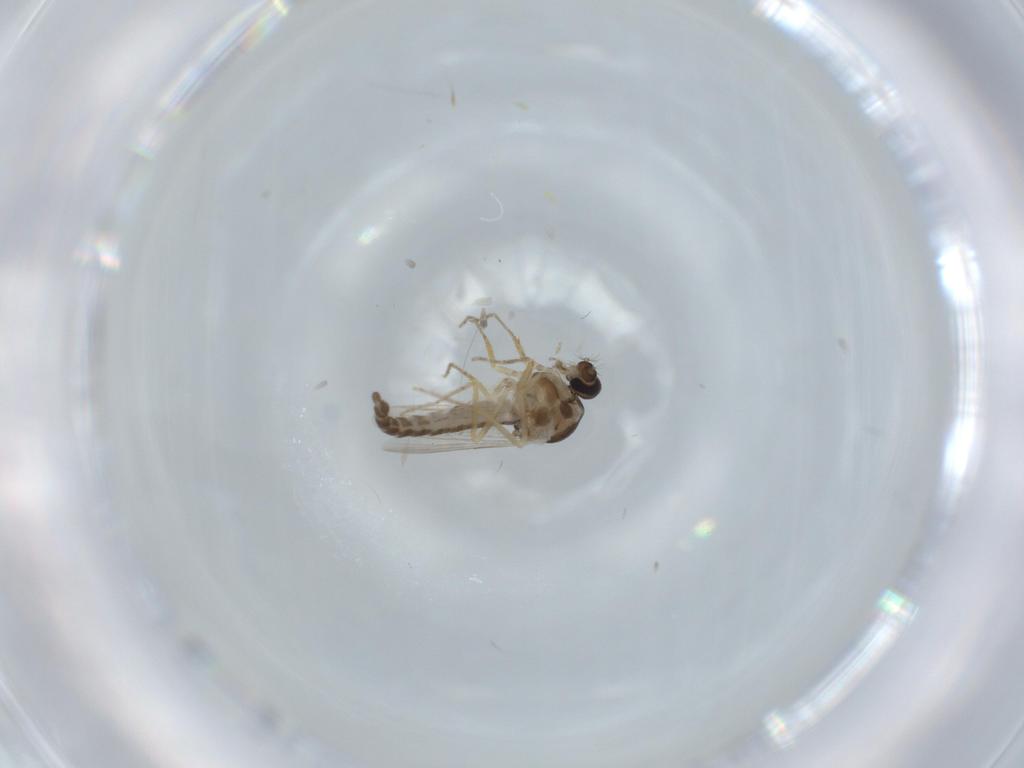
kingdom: Animalia
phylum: Arthropoda
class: Insecta
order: Diptera
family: Ceratopogonidae
